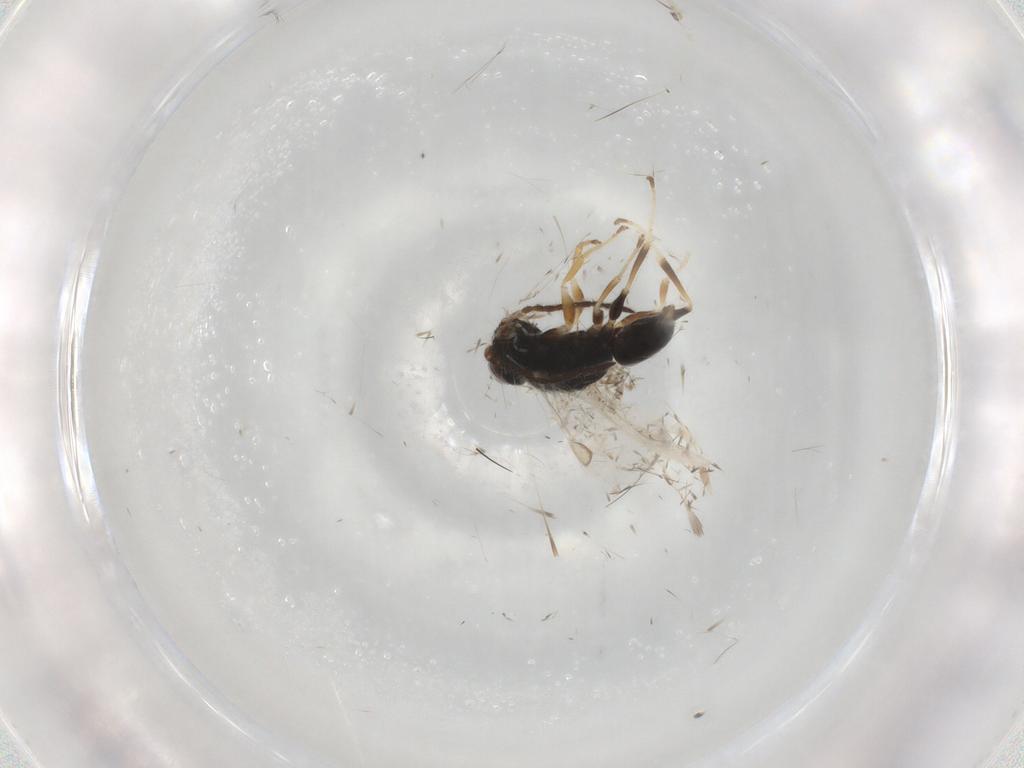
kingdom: Animalia
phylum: Arthropoda
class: Insecta
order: Hymenoptera
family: Dryinidae
